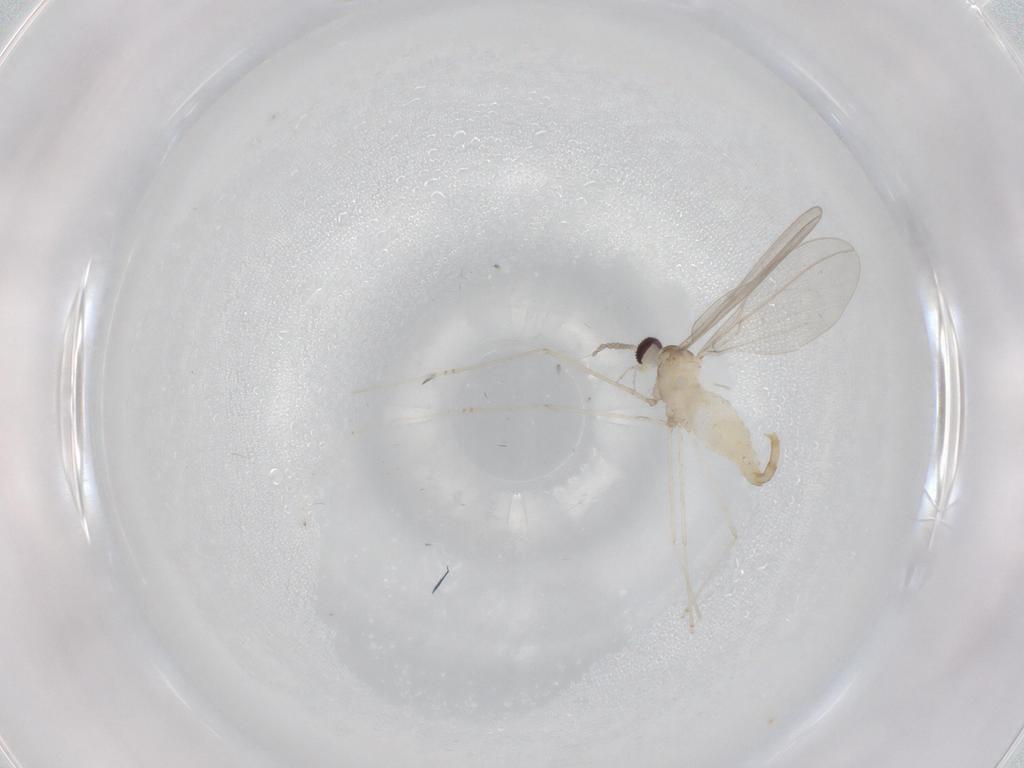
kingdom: Animalia
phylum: Arthropoda
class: Insecta
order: Diptera
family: Cecidomyiidae
